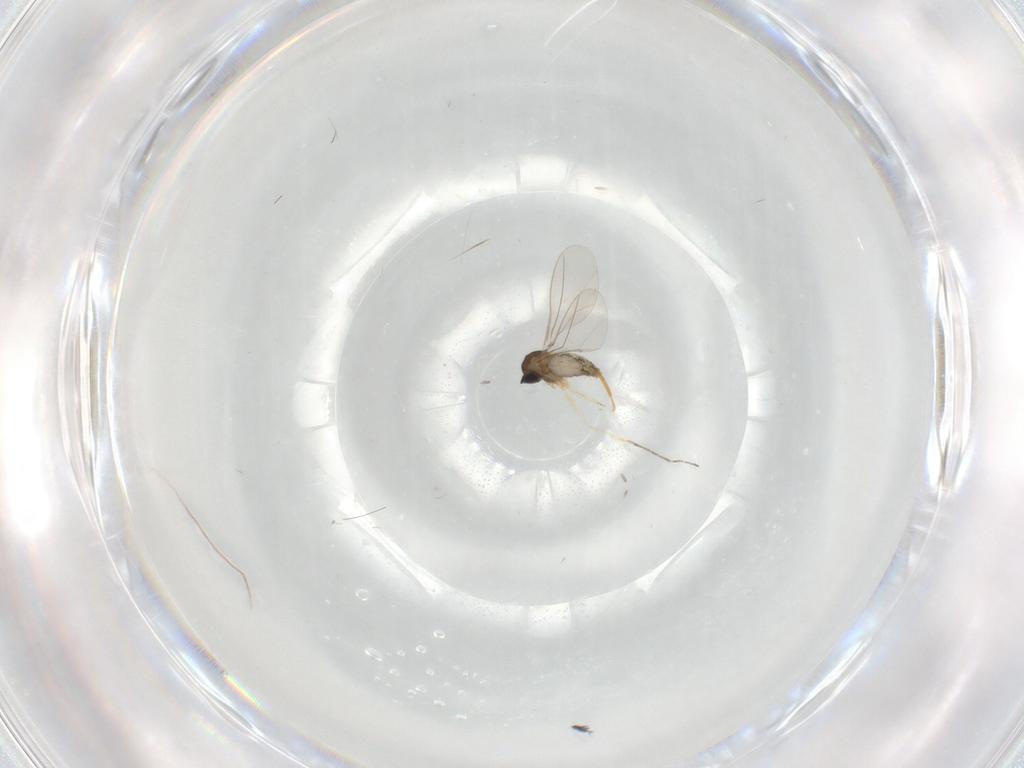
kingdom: Animalia
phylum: Arthropoda
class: Insecta
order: Diptera
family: Cecidomyiidae
